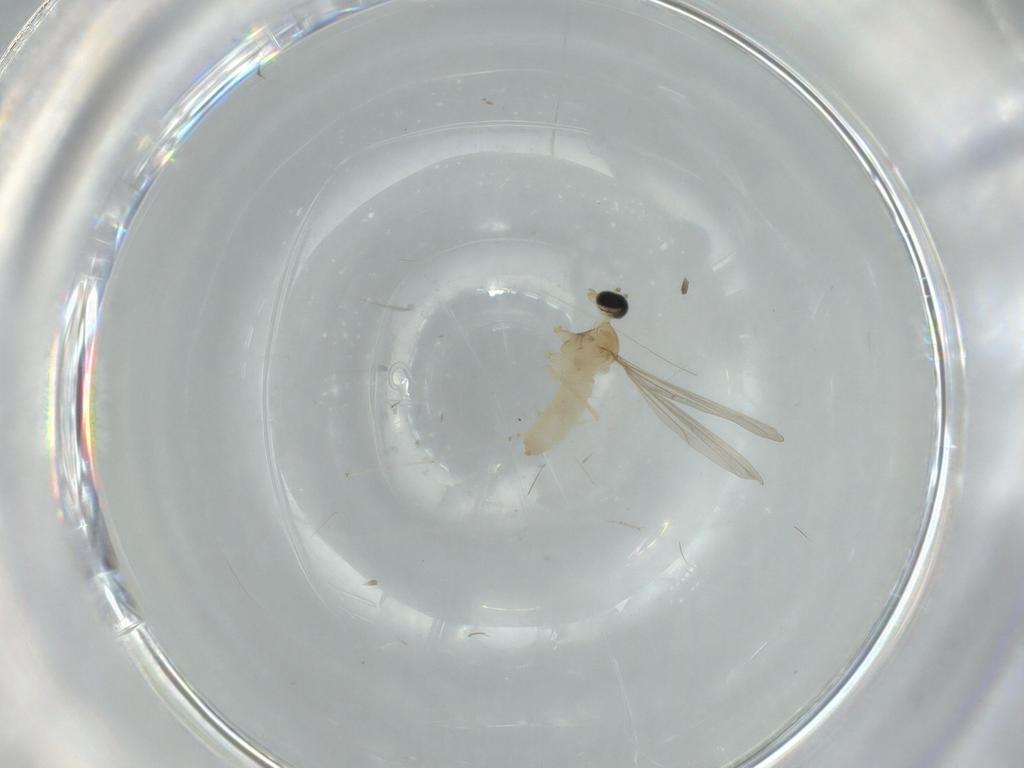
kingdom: Animalia
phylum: Arthropoda
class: Insecta
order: Diptera
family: Cecidomyiidae
